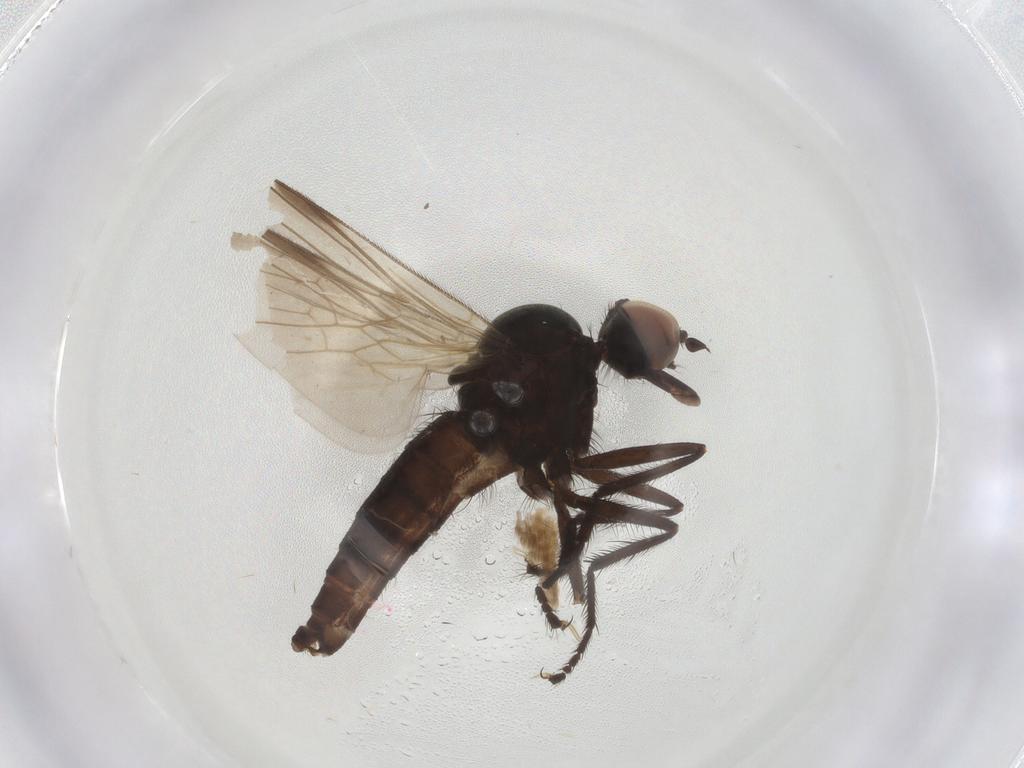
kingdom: Animalia
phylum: Arthropoda
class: Insecta
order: Diptera
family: Empididae
